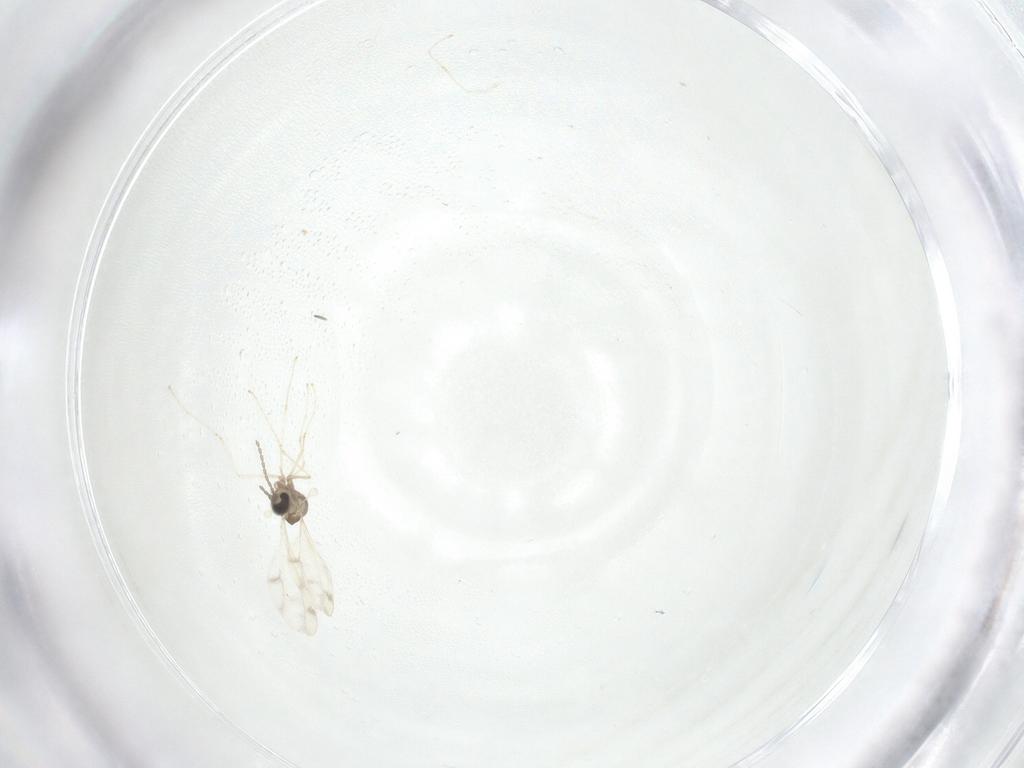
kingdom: Animalia
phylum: Arthropoda
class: Insecta
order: Diptera
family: Cecidomyiidae
